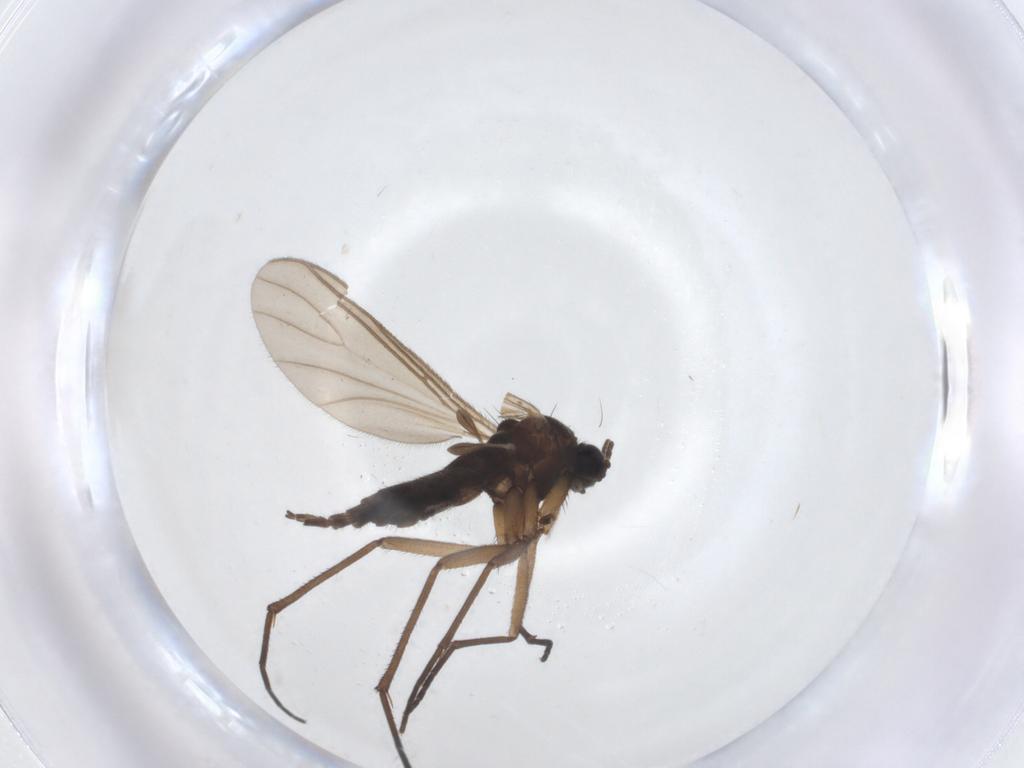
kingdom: Animalia
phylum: Arthropoda
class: Insecta
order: Diptera
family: Sciaridae
